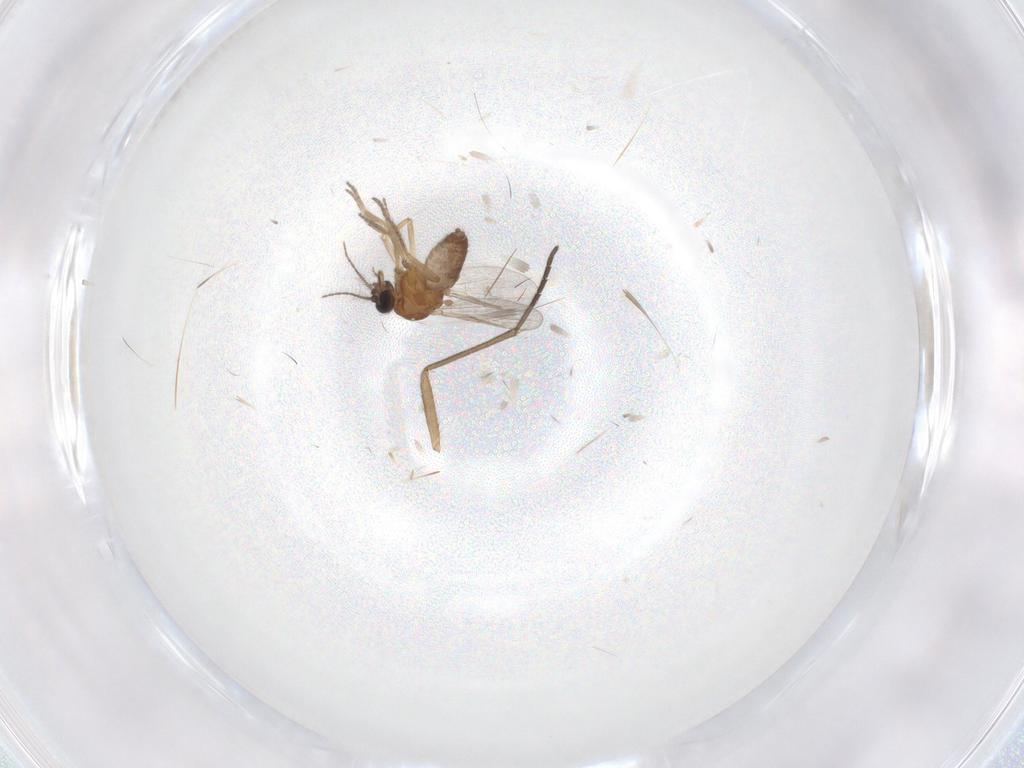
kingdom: Animalia
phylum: Arthropoda
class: Insecta
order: Diptera
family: Ceratopogonidae
